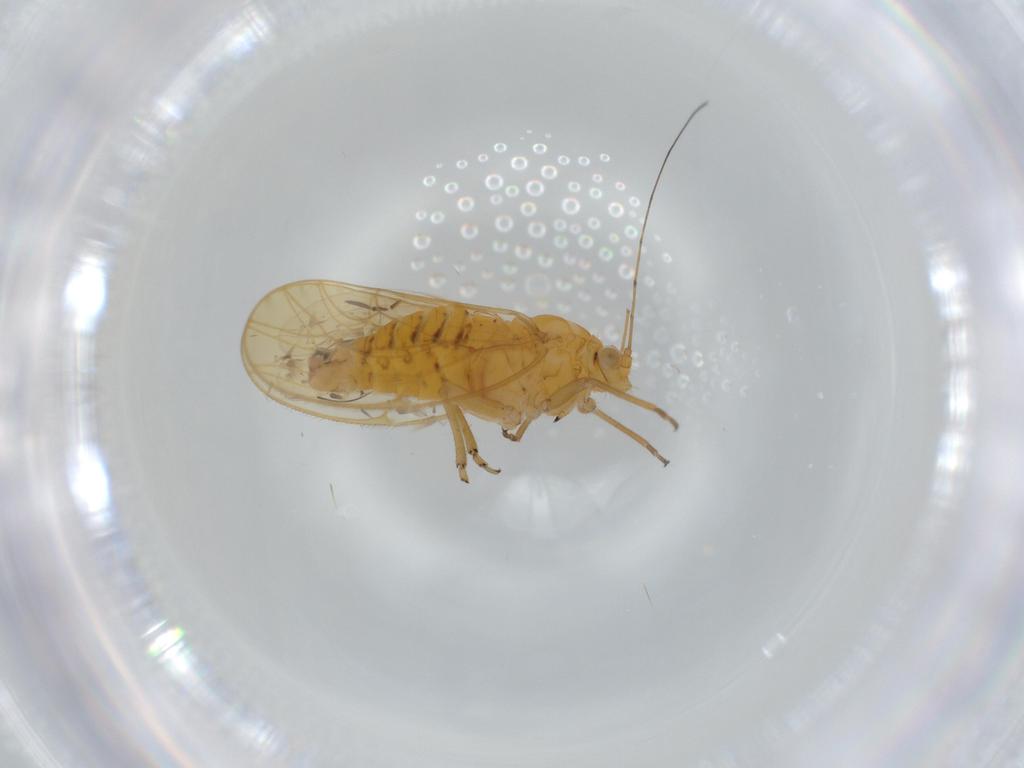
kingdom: Animalia
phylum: Arthropoda
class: Insecta
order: Hemiptera
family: Psyllidae
